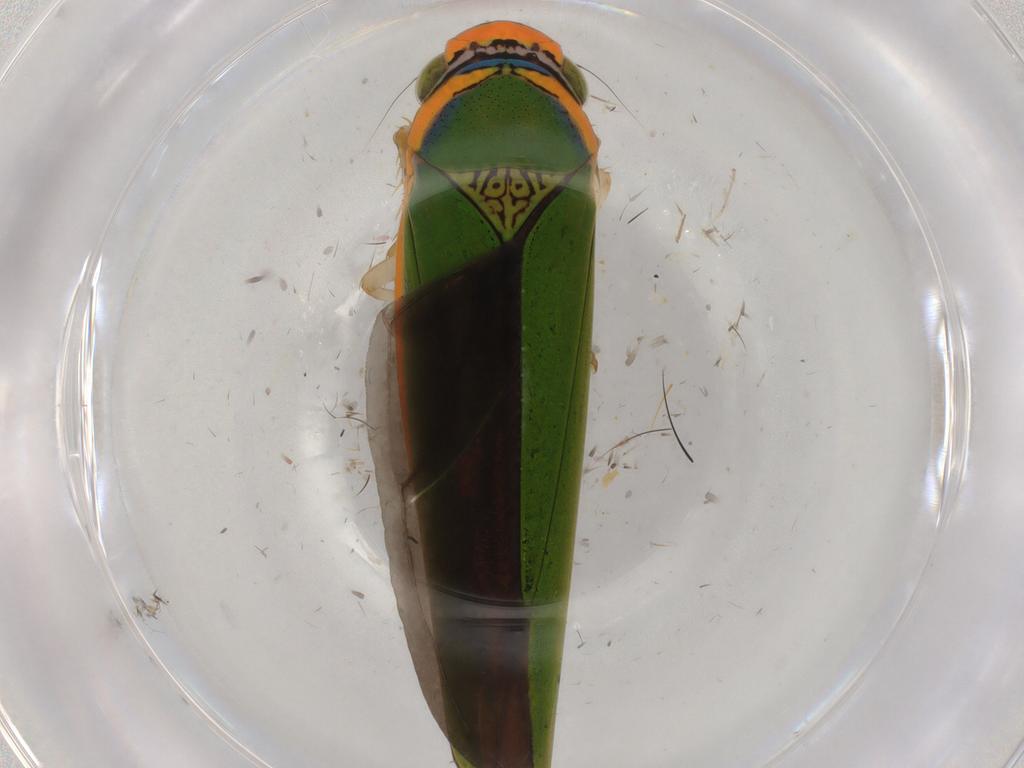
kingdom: Animalia
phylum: Arthropoda
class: Insecta
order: Hemiptera
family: Cicadellidae
